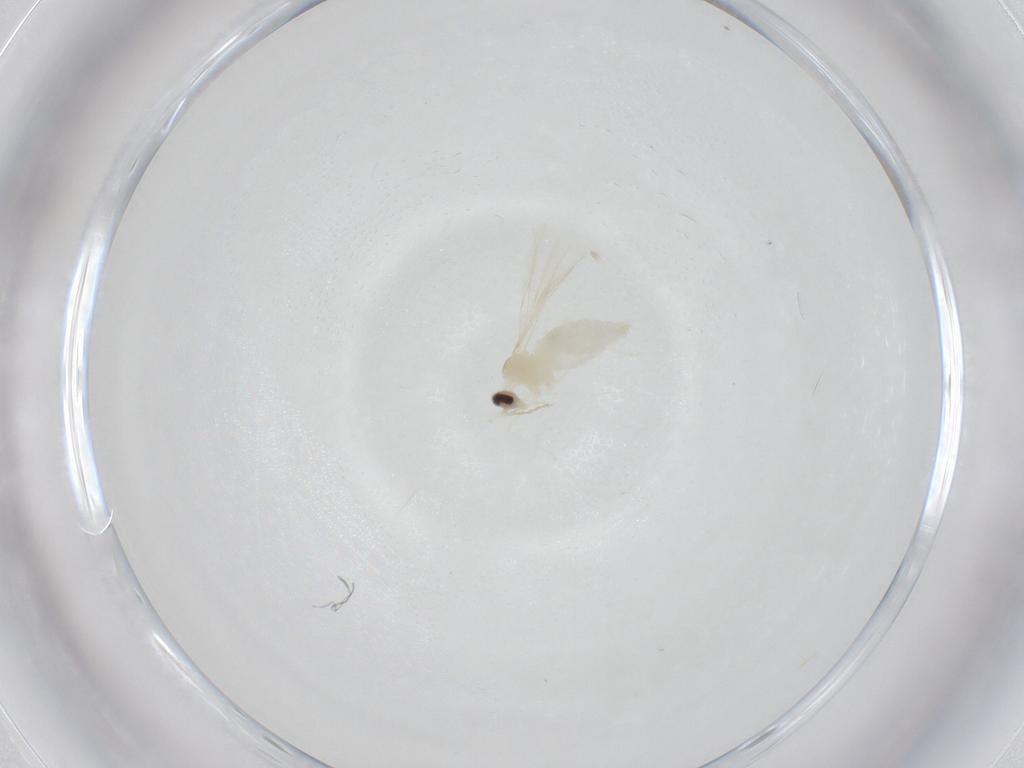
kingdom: Animalia
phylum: Arthropoda
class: Insecta
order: Diptera
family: Cecidomyiidae
